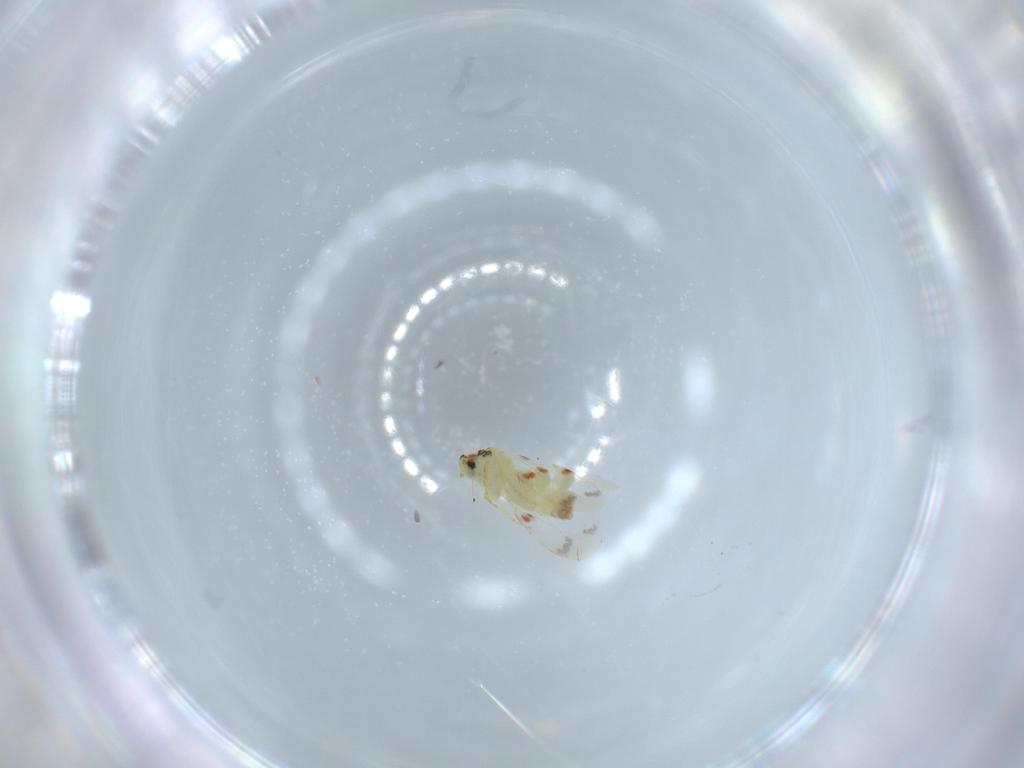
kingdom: Animalia
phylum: Arthropoda
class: Insecta
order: Hemiptera
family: Aleyrodidae
